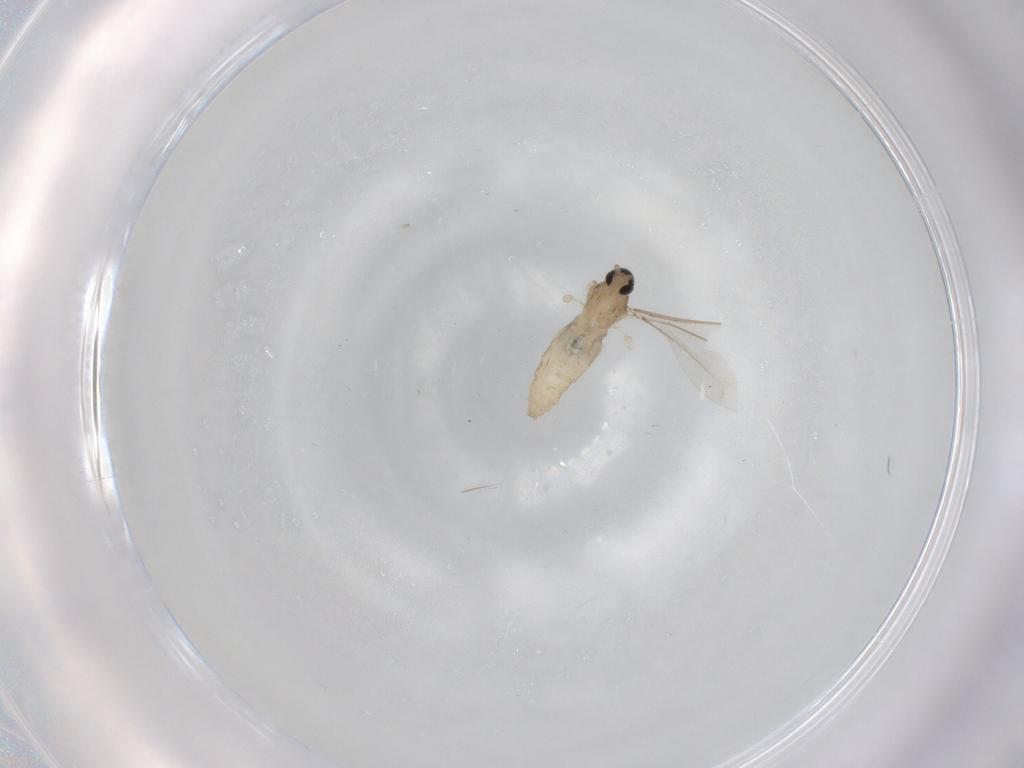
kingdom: Animalia
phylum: Arthropoda
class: Insecta
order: Diptera
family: Cecidomyiidae
